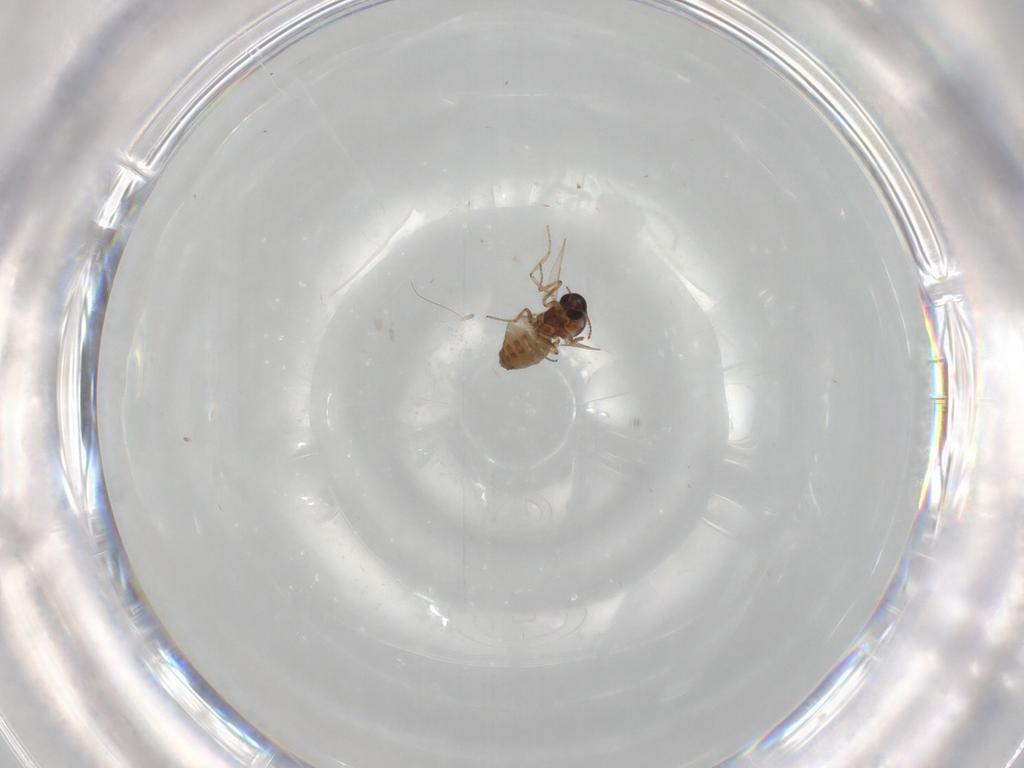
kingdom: Animalia
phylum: Arthropoda
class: Insecta
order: Diptera
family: Ceratopogonidae
